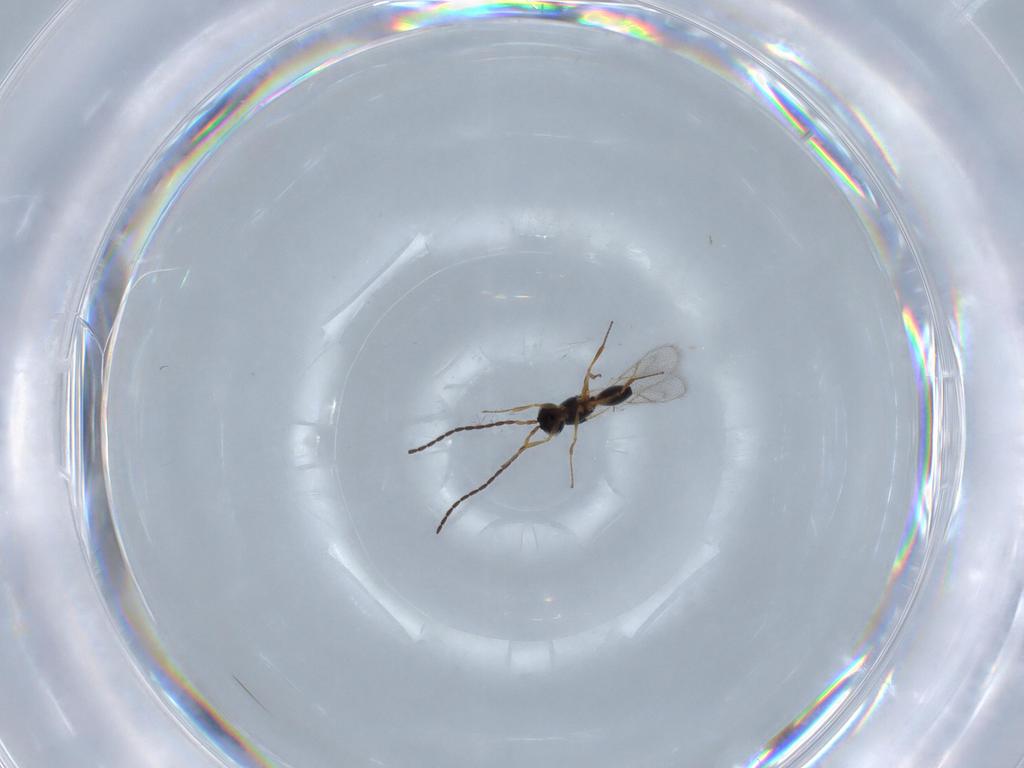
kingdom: Animalia
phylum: Arthropoda
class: Insecta
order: Hymenoptera
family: Figitidae
